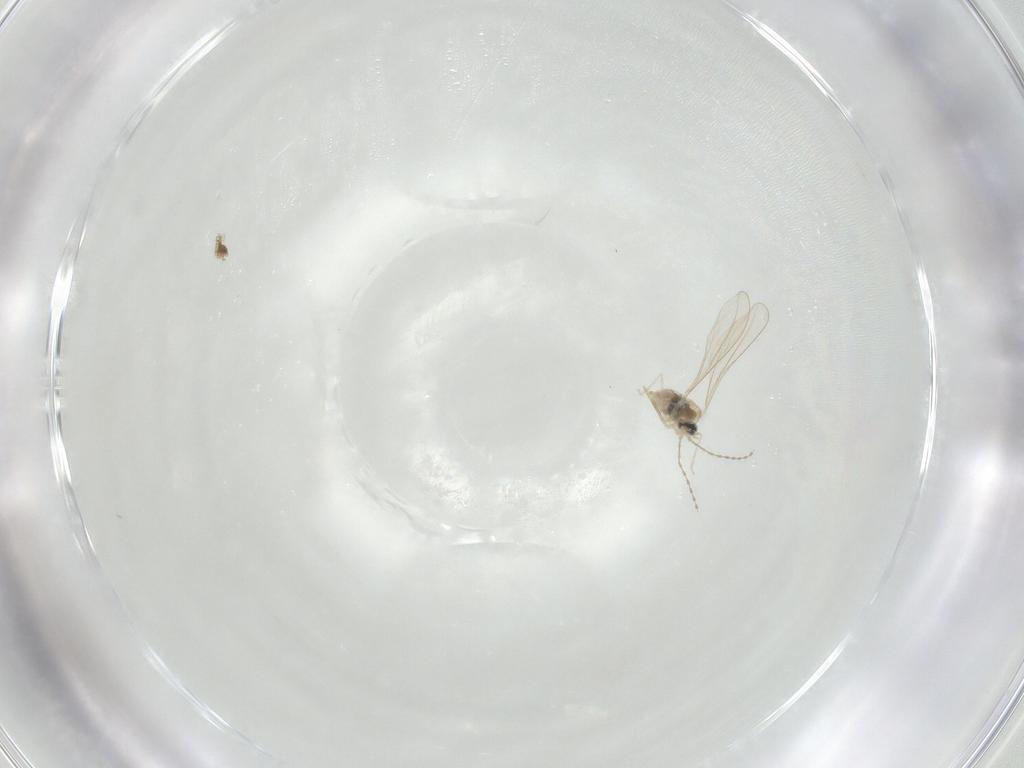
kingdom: Animalia
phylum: Arthropoda
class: Insecta
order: Diptera
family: Cecidomyiidae
